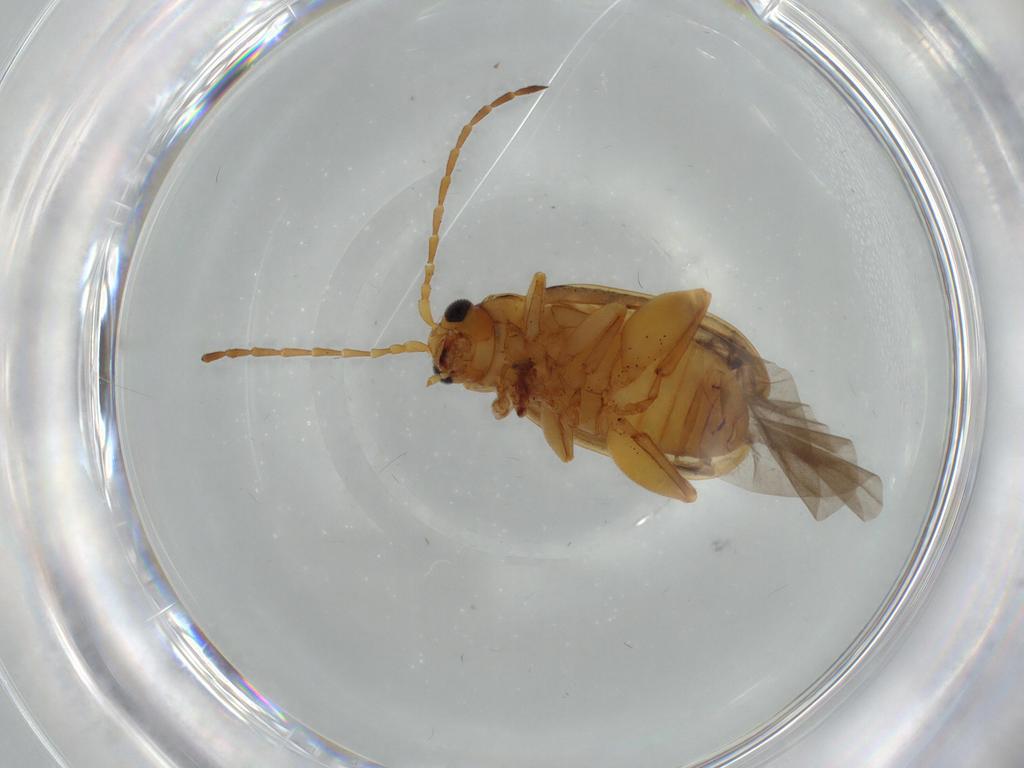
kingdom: Animalia
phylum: Arthropoda
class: Insecta
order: Coleoptera
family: Chrysomelidae
